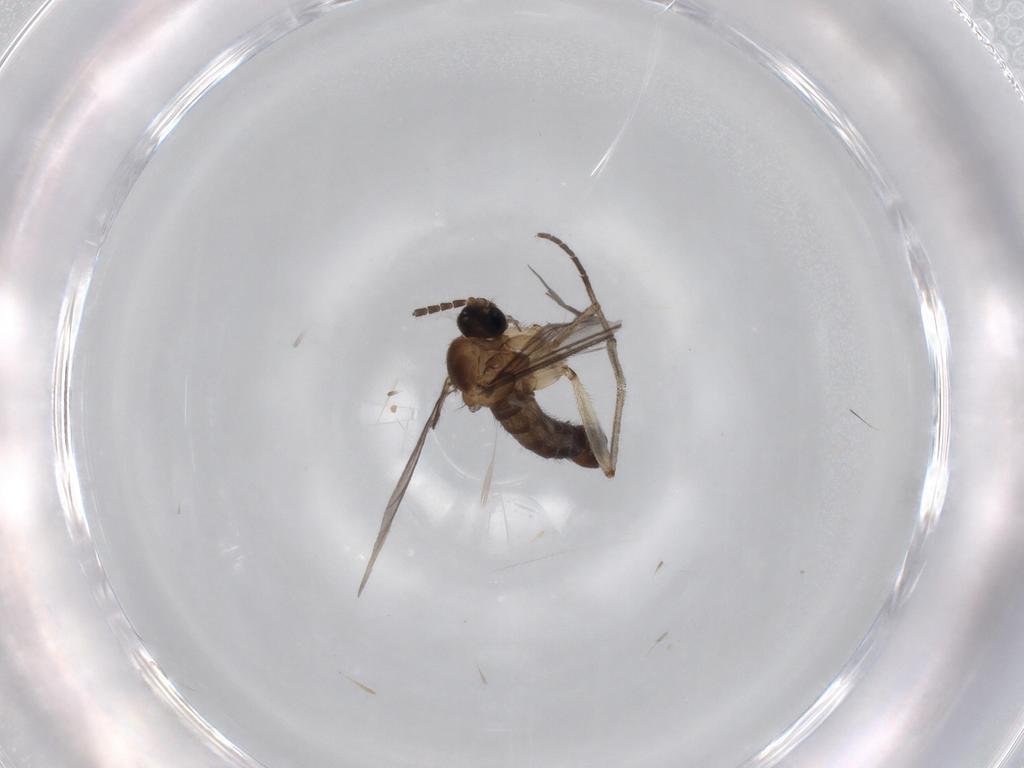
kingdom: Animalia
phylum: Arthropoda
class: Insecta
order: Diptera
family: Sciaridae
